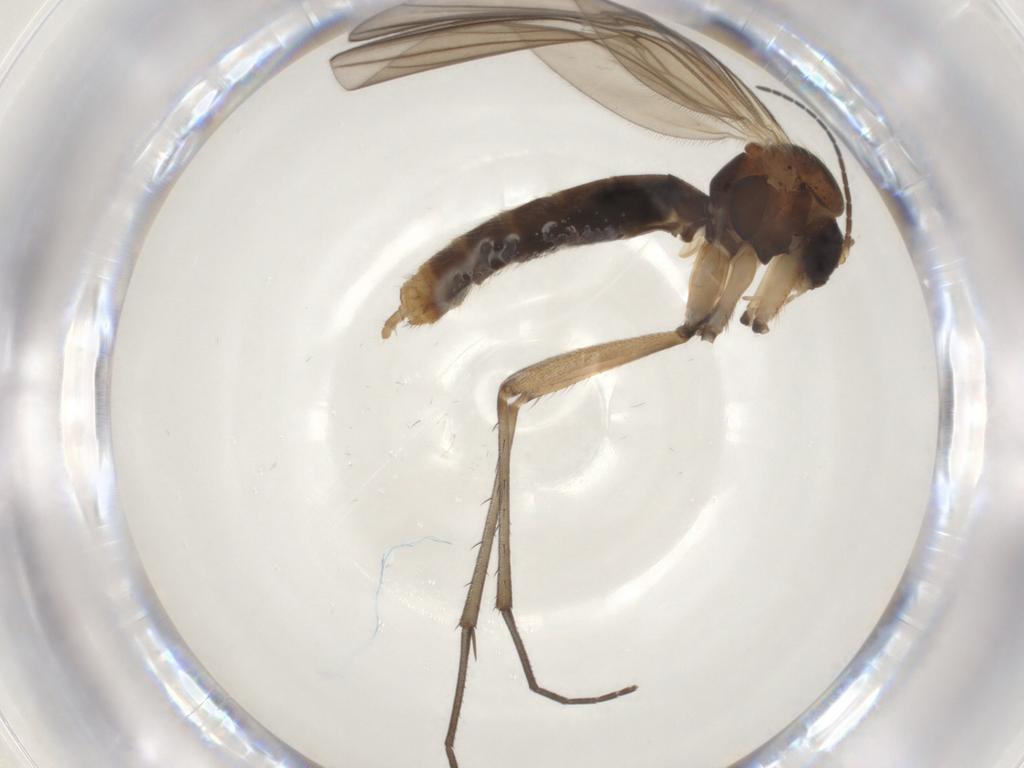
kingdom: Animalia
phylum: Arthropoda
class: Insecta
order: Diptera
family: Mycetophilidae
